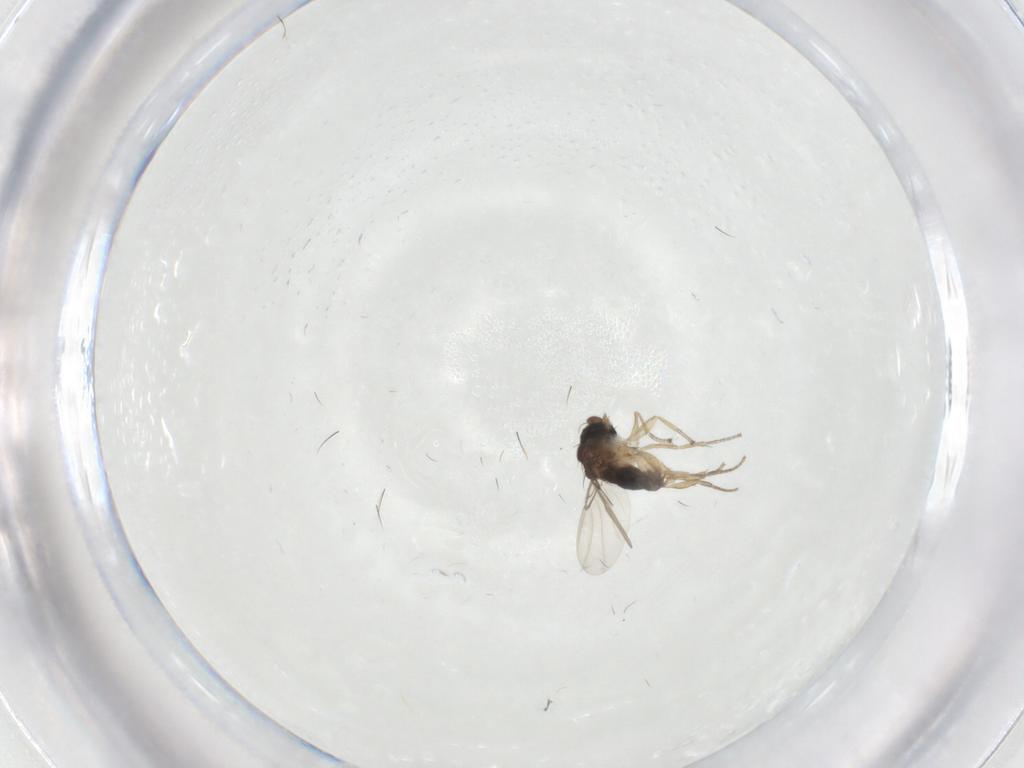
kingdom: Animalia
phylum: Arthropoda
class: Insecta
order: Diptera
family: Phoridae
